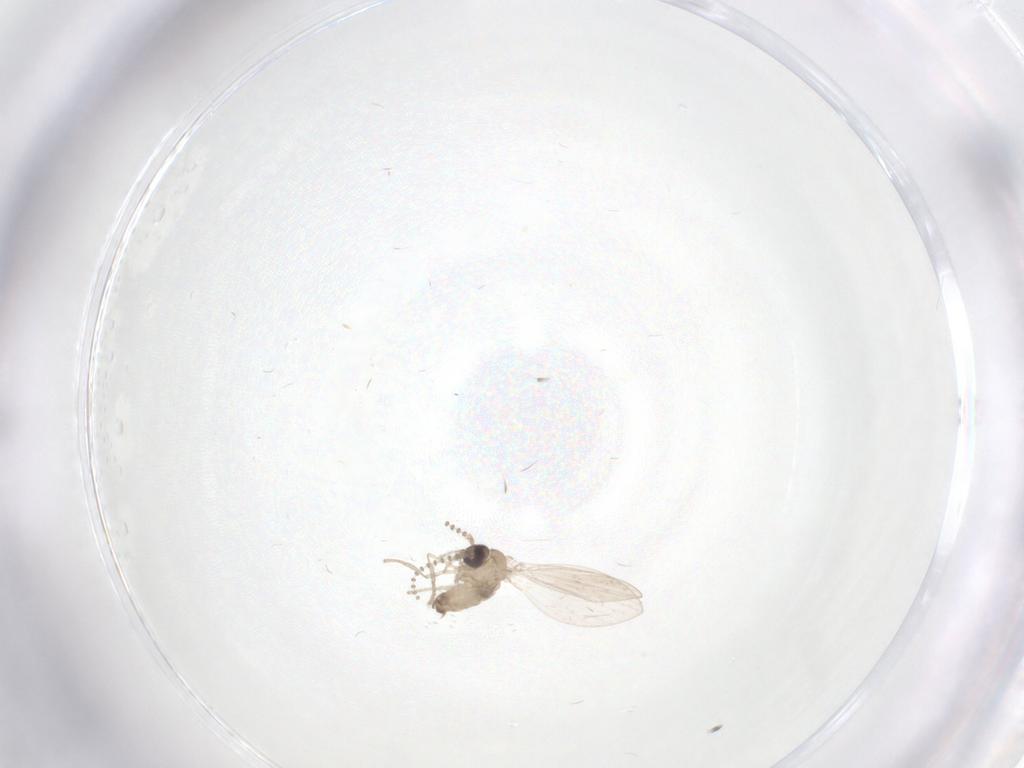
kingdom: Animalia
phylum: Arthropoda
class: Insecta
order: Diptera
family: Psychodidae
